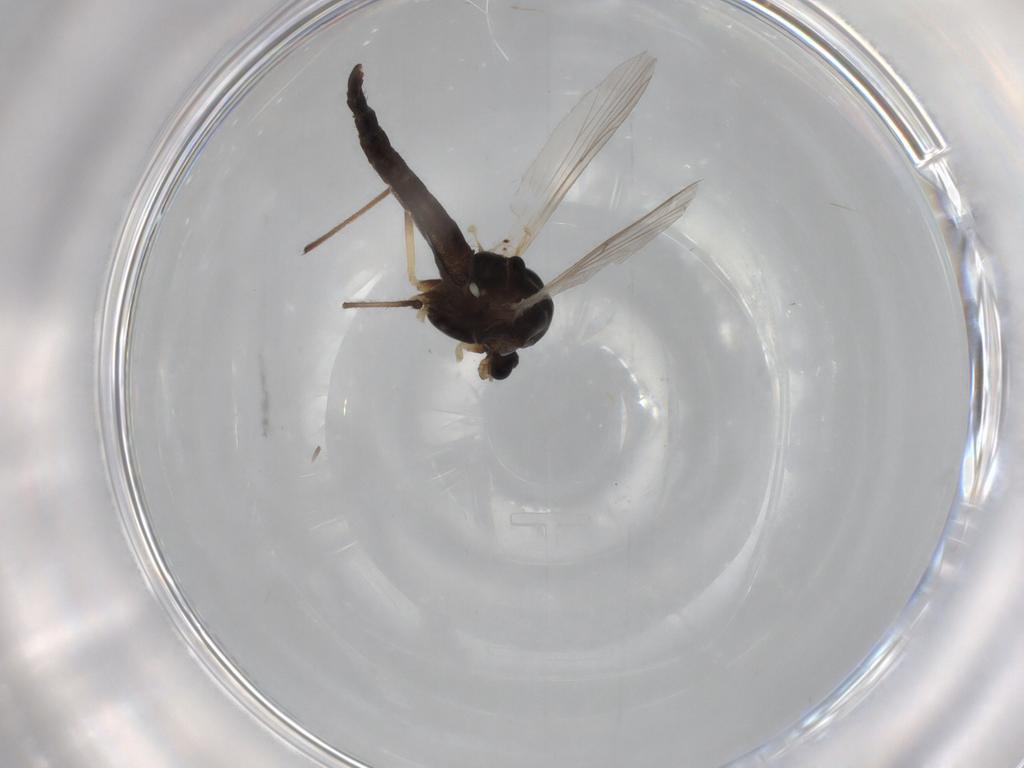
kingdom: Animalia
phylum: Arthropoda
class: Insecta
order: Diptera
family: Chironomidae
